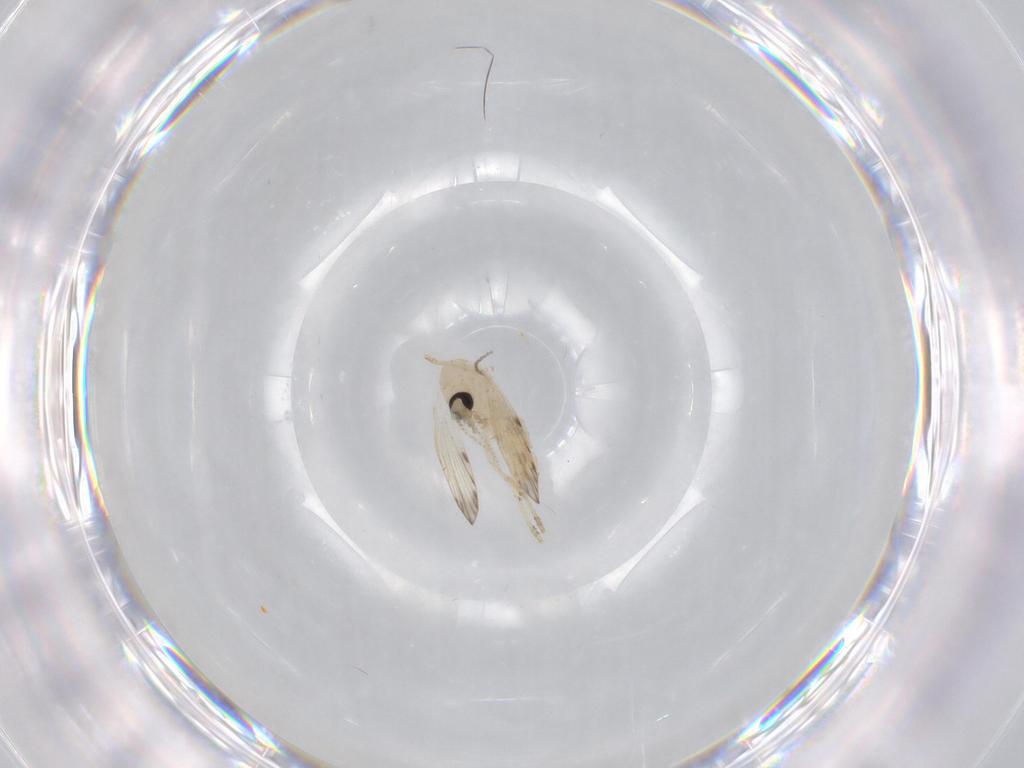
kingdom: Animalia
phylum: Arthropoda
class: Insecta
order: Diptera
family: Psychodidae
